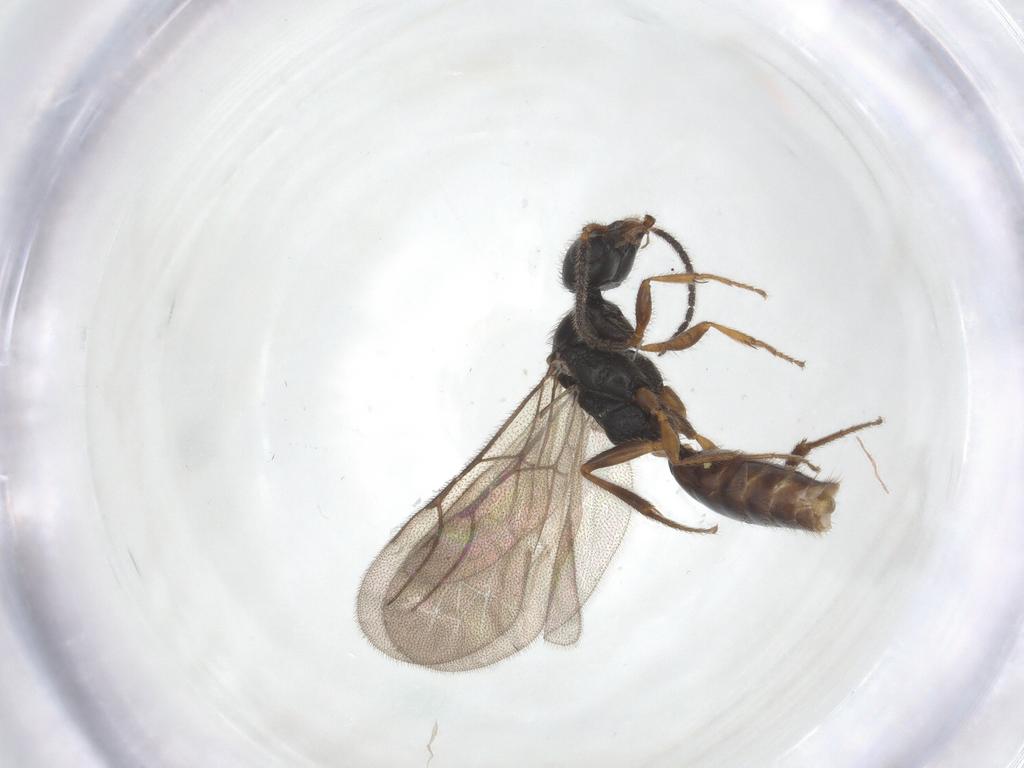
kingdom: Animalia
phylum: Arthropoda
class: Insecta
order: Hymenoptera
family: Bethylidae
